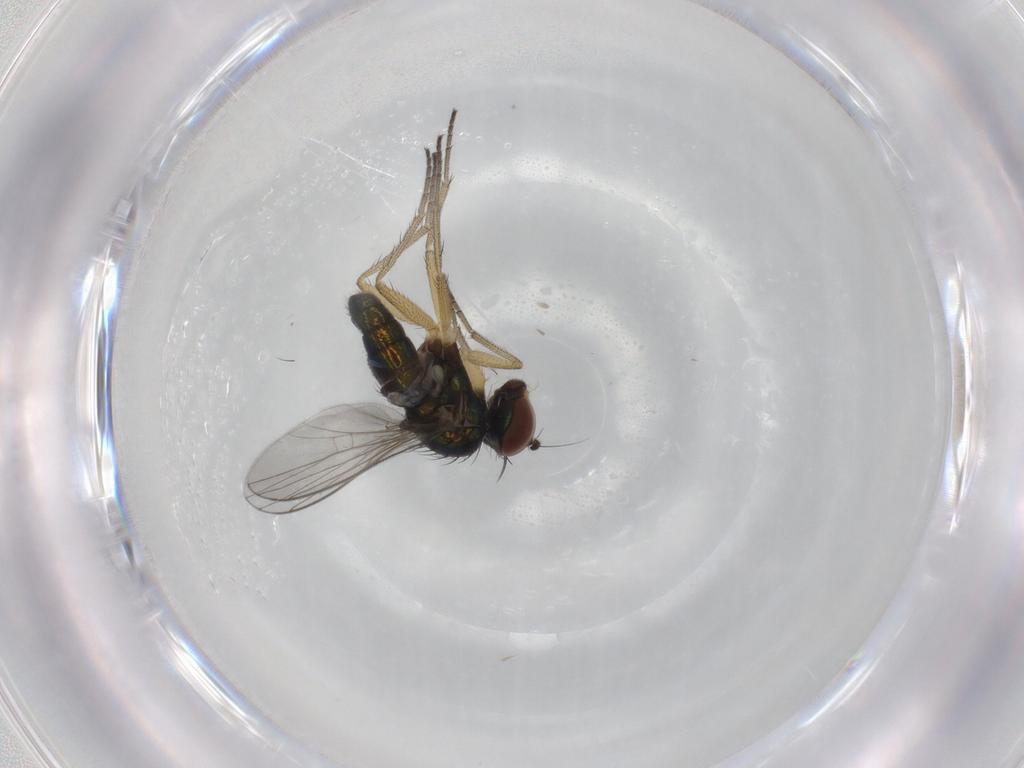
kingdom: Animalia
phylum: Arthropoda
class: Insecta
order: Diptera
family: Dolichopodidae
